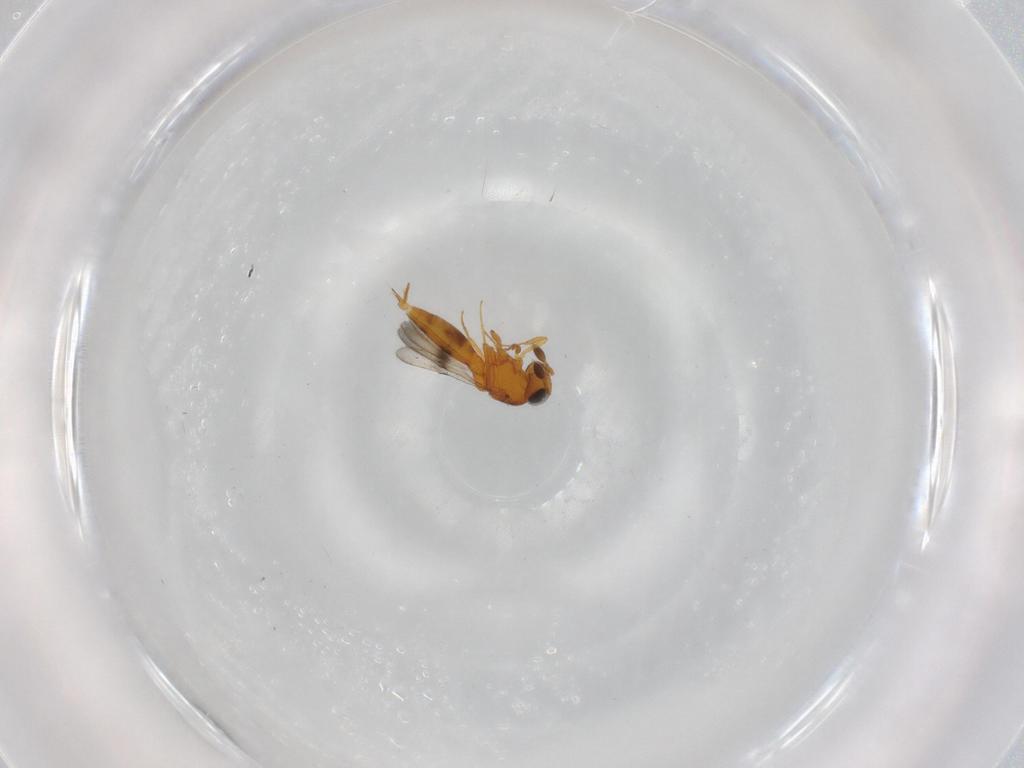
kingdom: Animalia
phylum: Arthropoda
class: Insecta
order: Hymenoptera
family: Scelionidae
